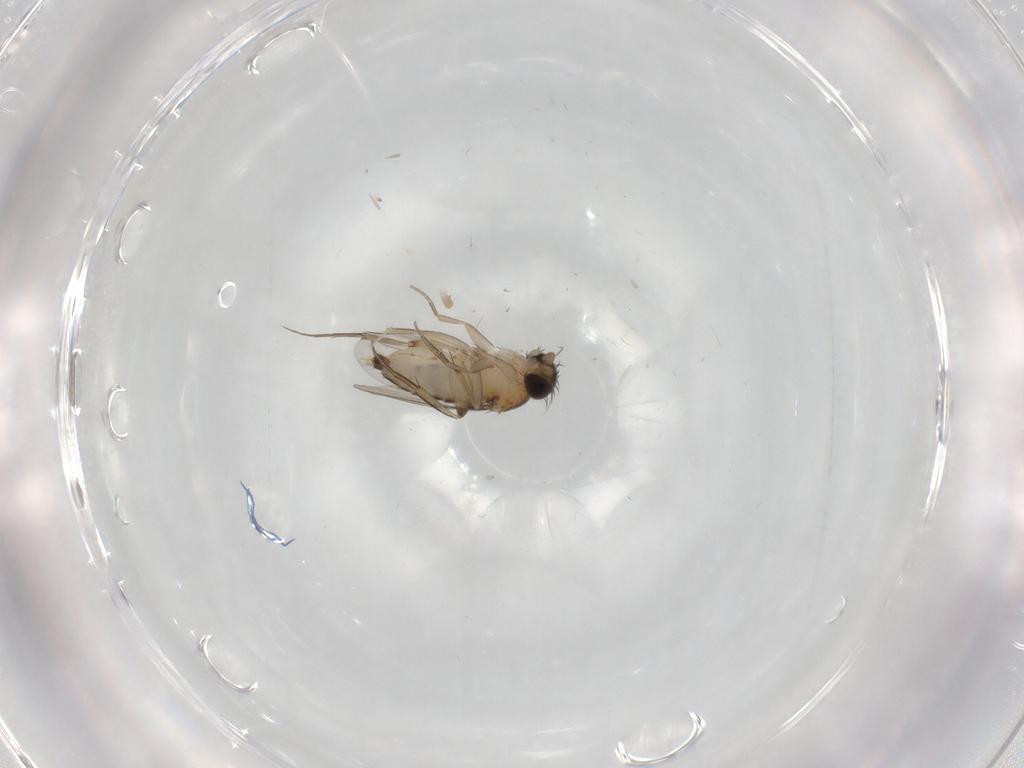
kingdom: Animalia
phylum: Arthropoda
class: Insecta
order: Diptera
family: Phoridae
